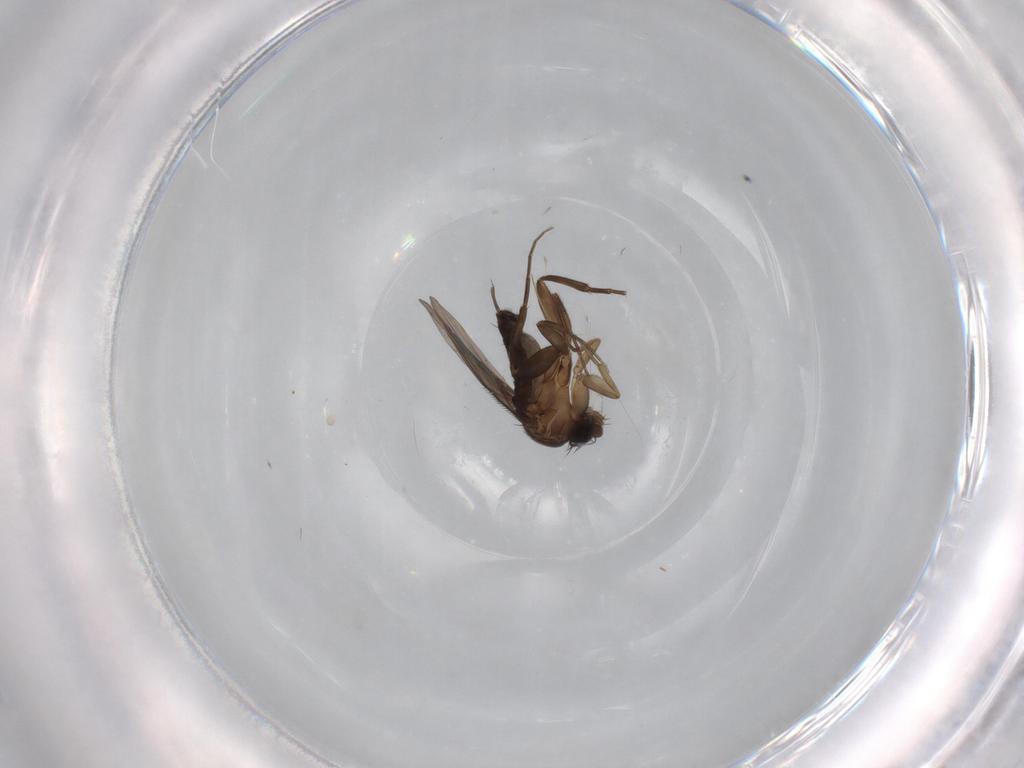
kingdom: Animalia
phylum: Arthropoda
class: Insecta
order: Diptera
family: Phoridae
